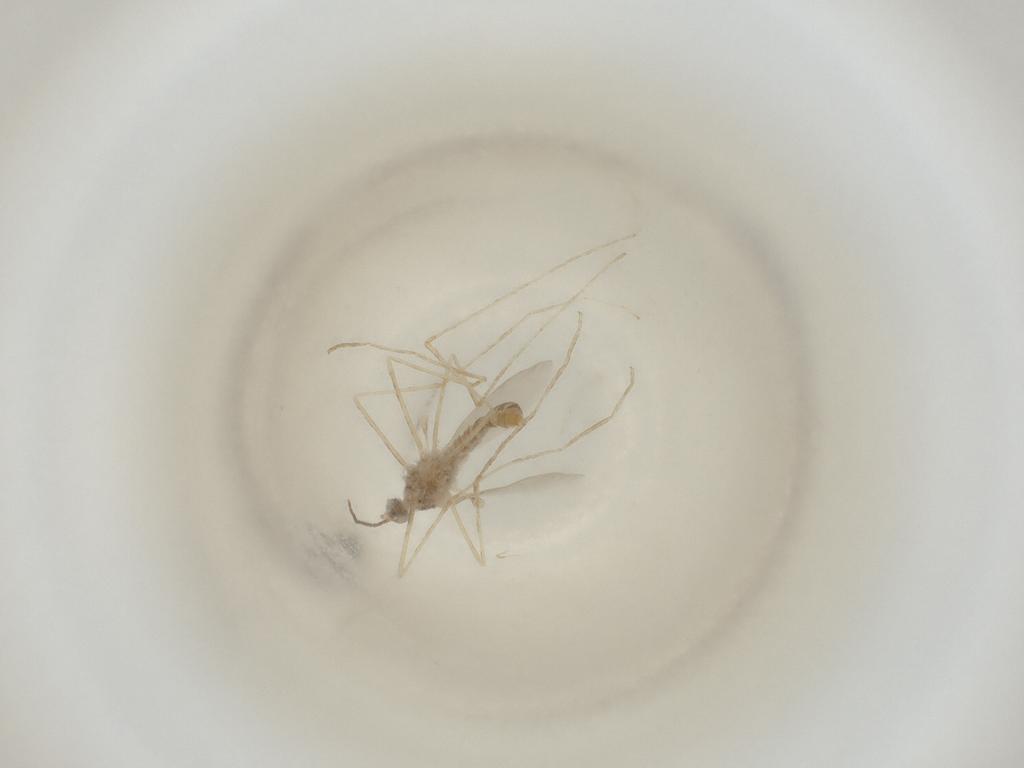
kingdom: Animalia
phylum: Arthropoda
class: Insecta
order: Diptera
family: Cecidomyiidae
